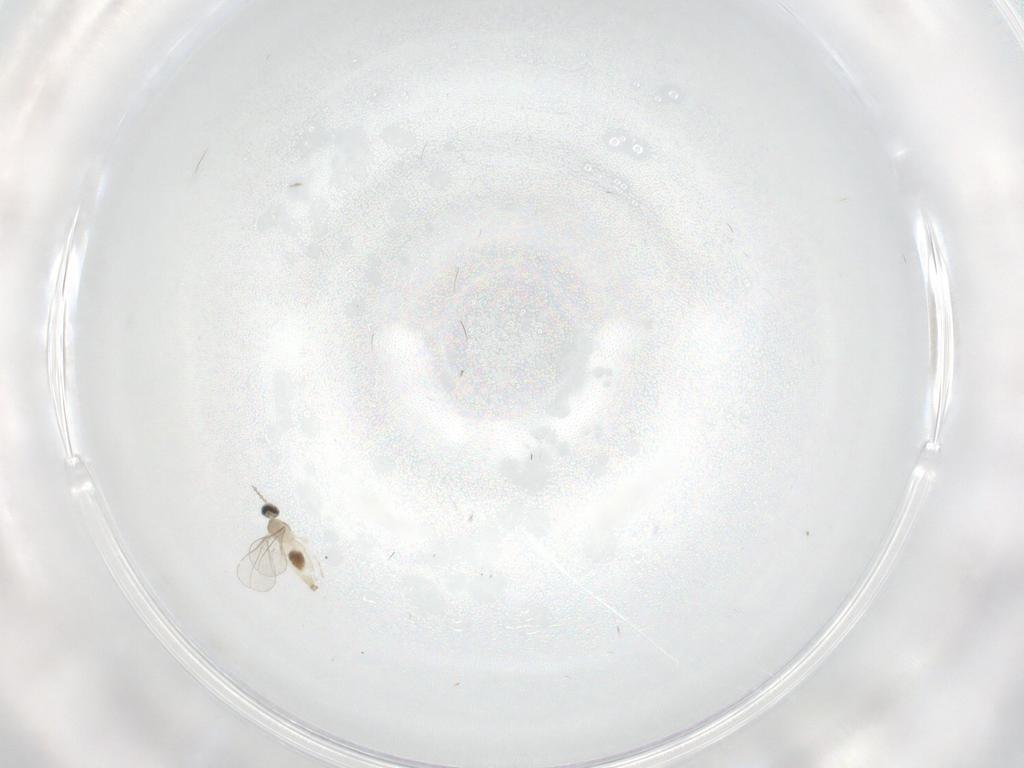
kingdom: Animalia
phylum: Arthropoda
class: Insecta
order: Diptera
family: Cecidomyiidae
